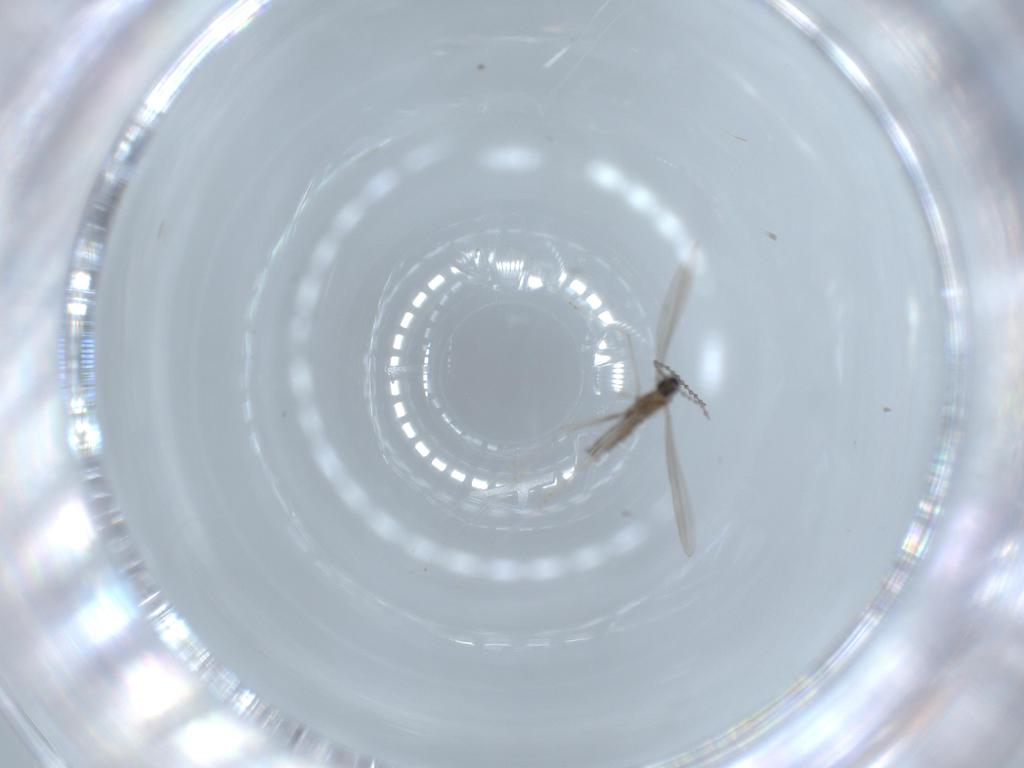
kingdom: Animalia
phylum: Arthropoda
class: Insecta
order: Diptera
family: Cecidomyiidae
